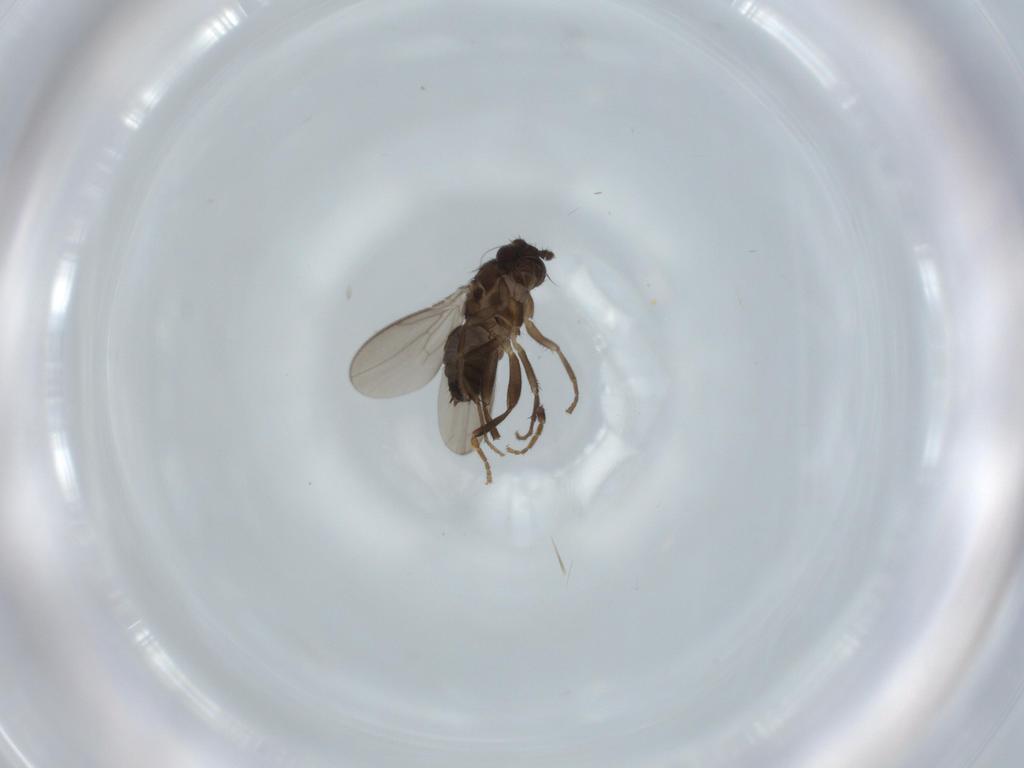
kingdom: Animalia
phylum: Arthropoda
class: Insecta
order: Diptera
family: Sphaeroceridae
